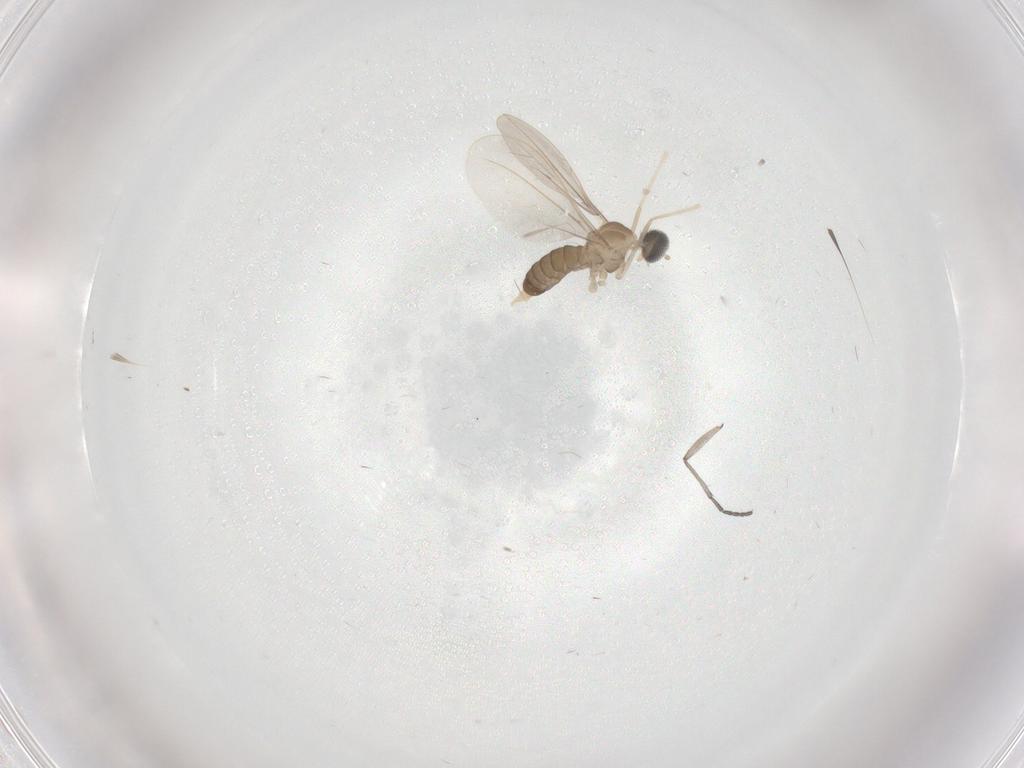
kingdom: Animalia
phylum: Arthropoda
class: Insecta
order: Diptera
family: Cecidomyiidae
